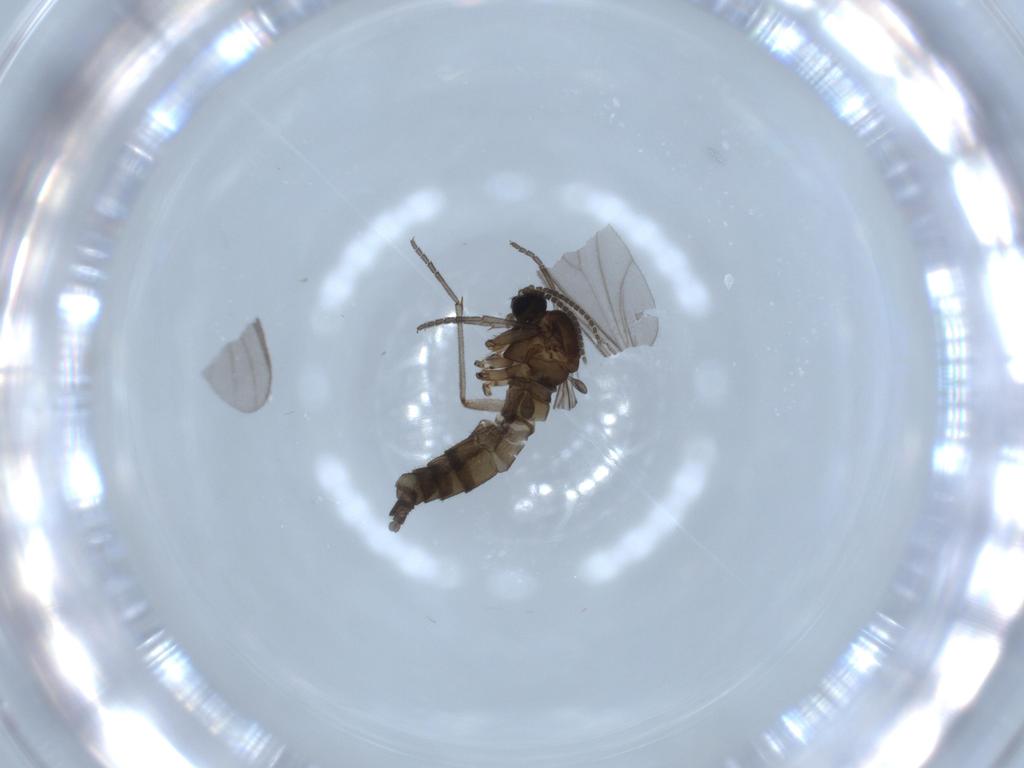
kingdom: Animalia
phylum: Arthropoda
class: Insecta
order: Diptera
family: Sciaridae
